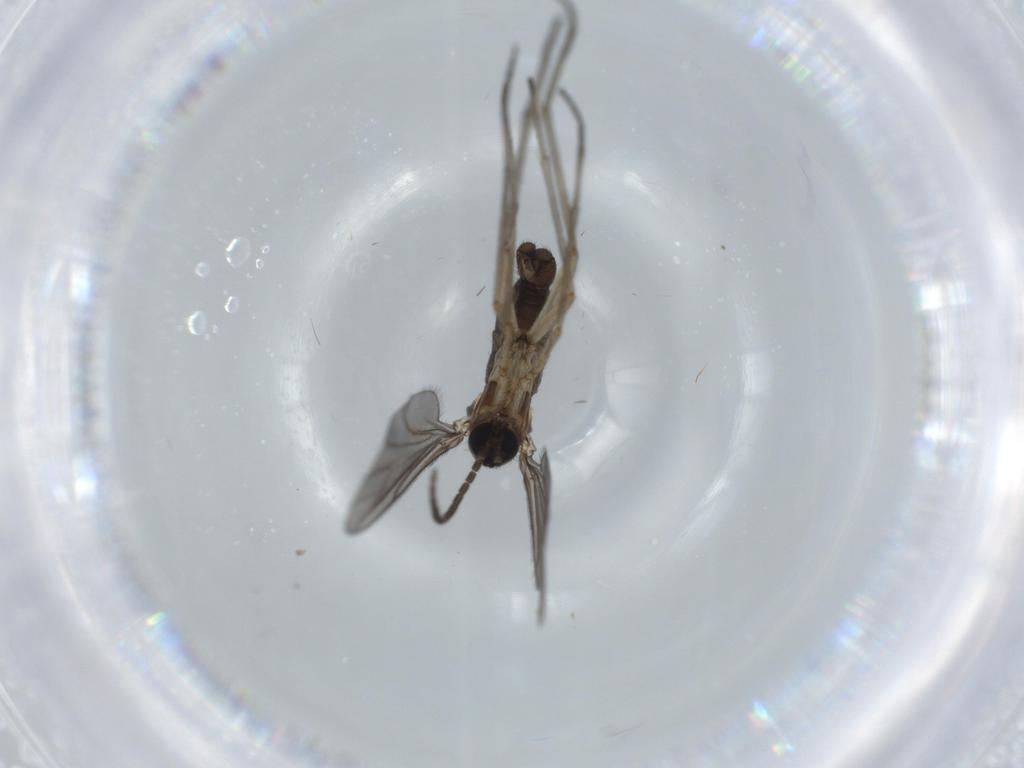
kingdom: Animalia
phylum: Arthropoda
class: Insecta
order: Diptera
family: Sciaridae
